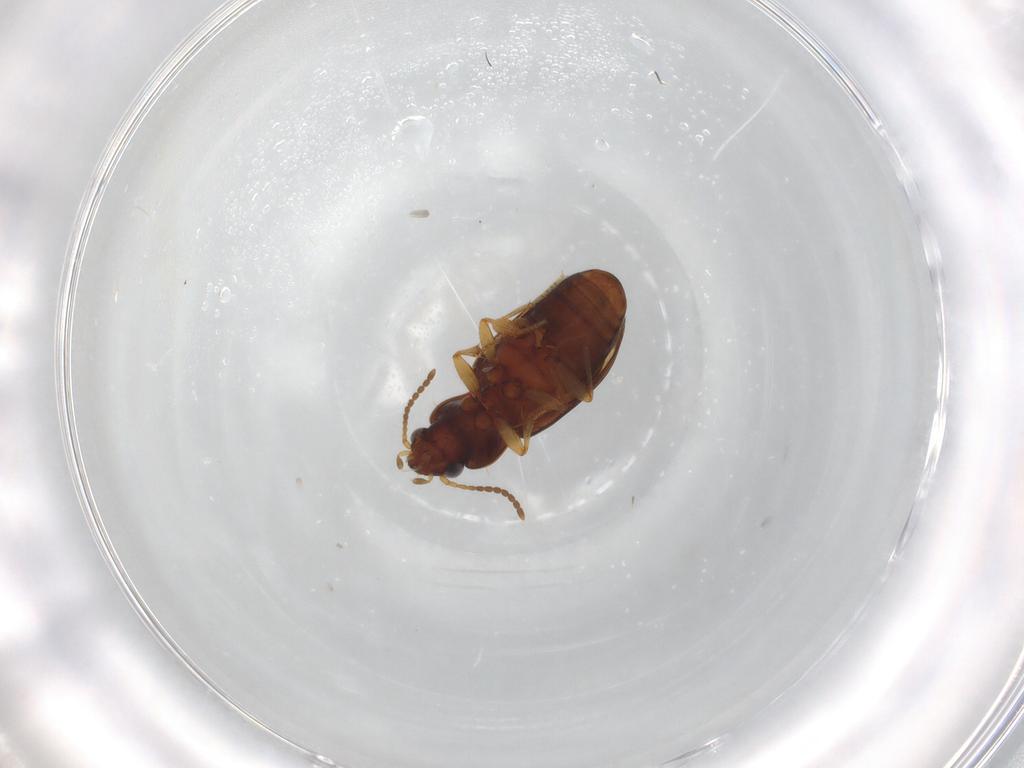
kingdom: Animalia
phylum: Arthropoda
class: Insecta
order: Coleoptera
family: Carabidae
